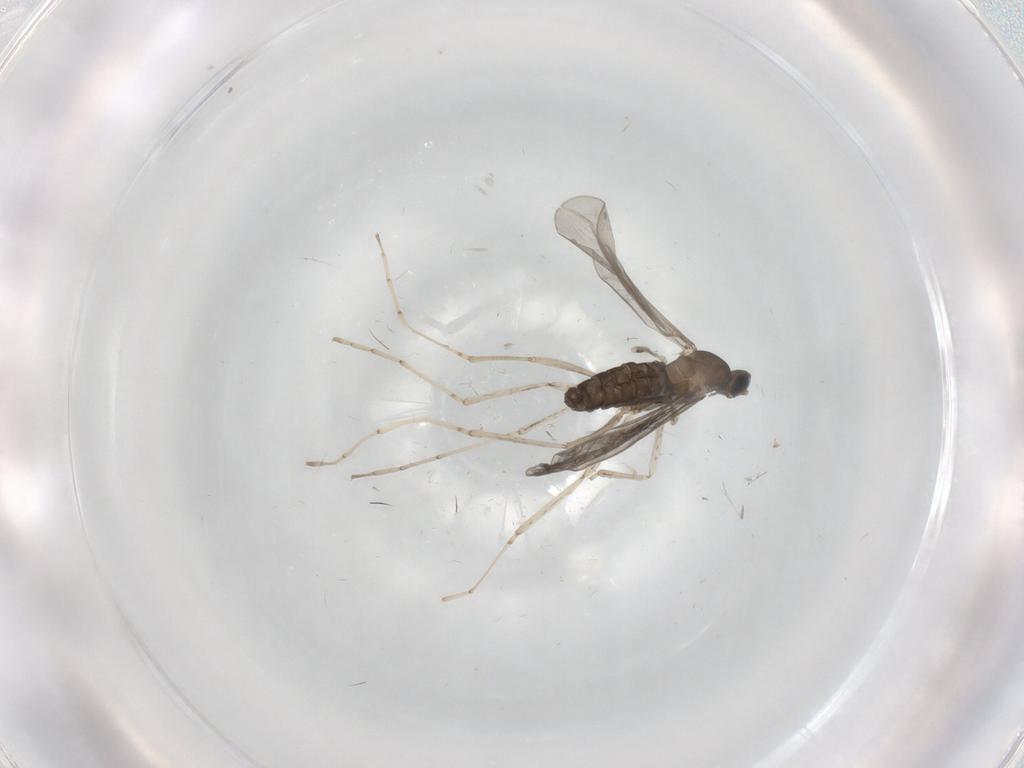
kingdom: Animalia
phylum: Arthropoda
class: Insecta
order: Diptera
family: Cecidomyiidae
